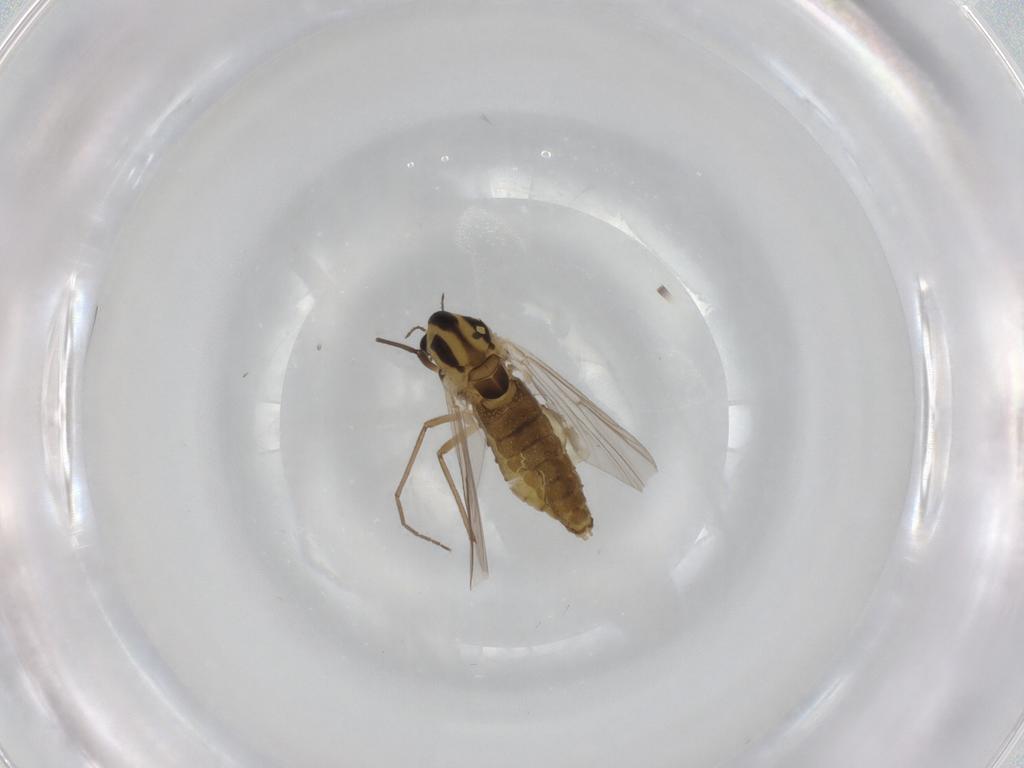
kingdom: Animalia
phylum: Arthropoda
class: Insecta
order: Diptera
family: Chironomidae
